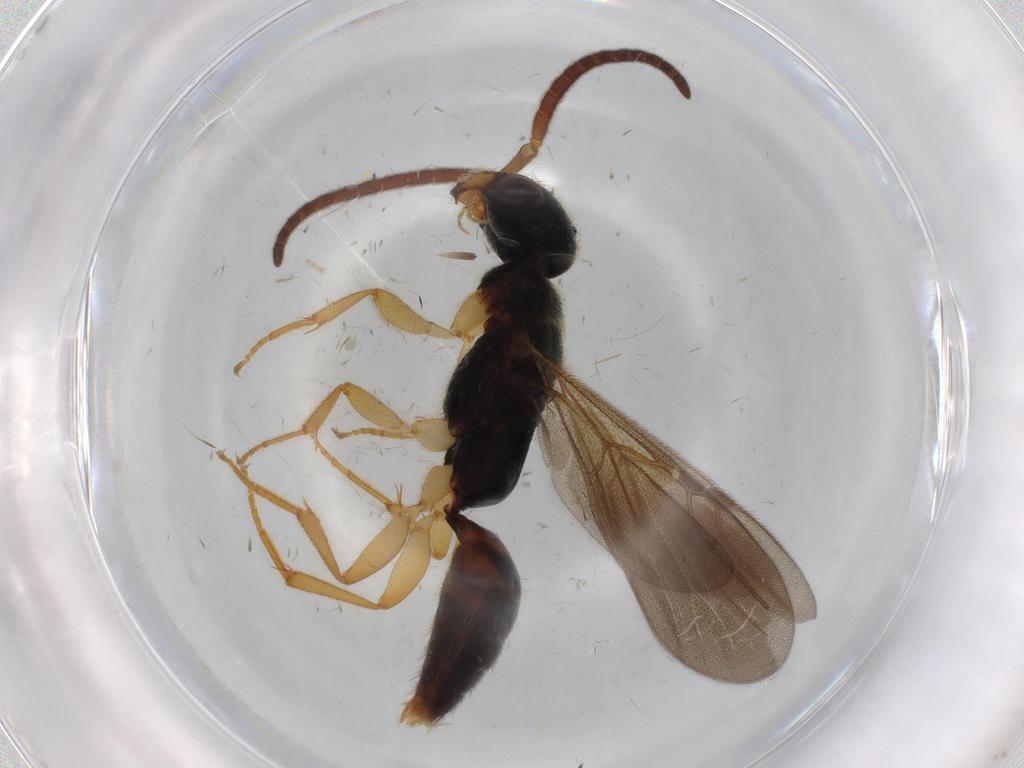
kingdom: Animalia
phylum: Arthropoda
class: Insecta
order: Hymenoptera
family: Bethylidae
